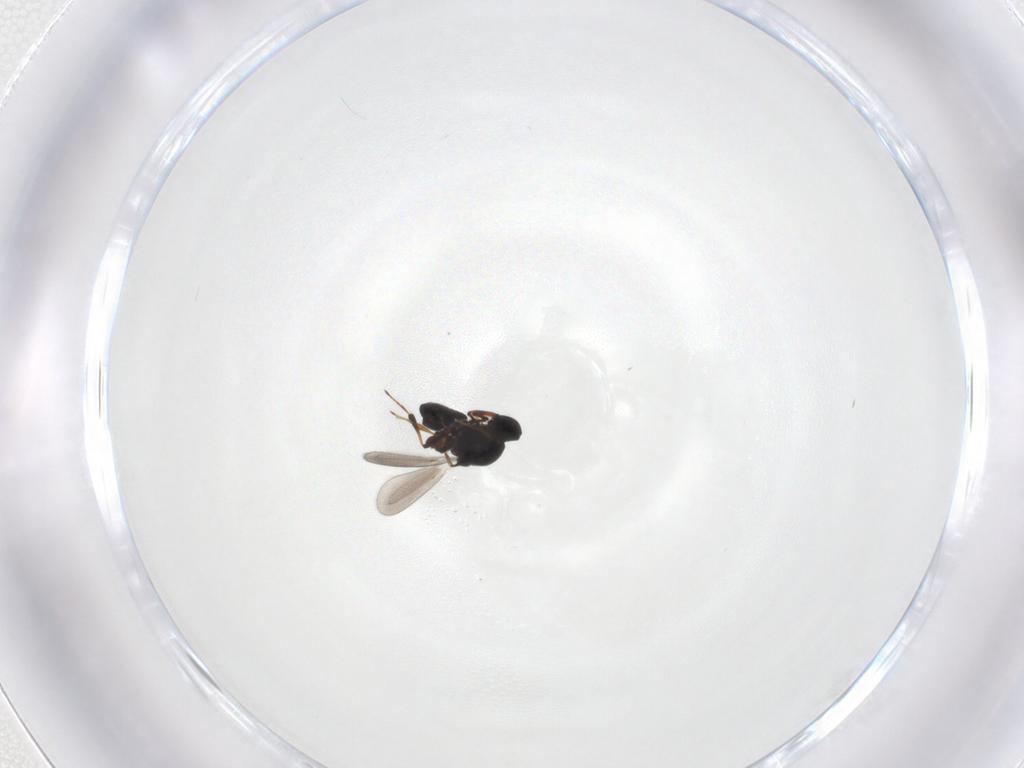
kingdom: Animalia
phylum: Arthropoda
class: Insecta
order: Hymenoptera
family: Platygastridae
